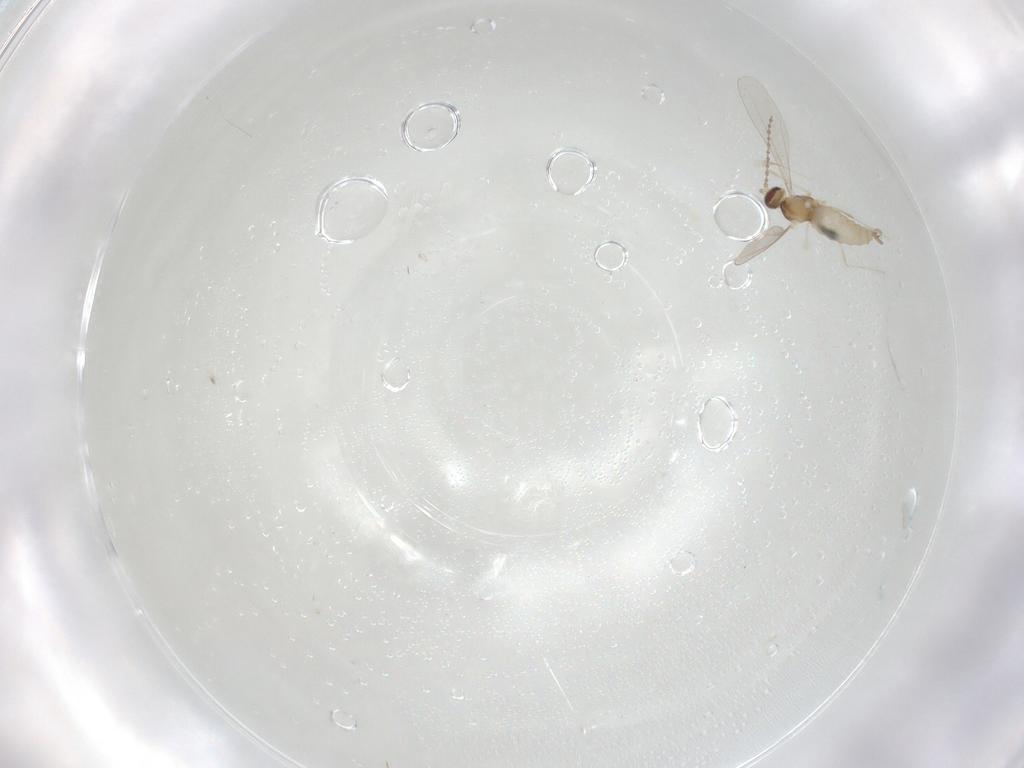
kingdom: Animalia
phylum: Arthropoda
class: Insecta
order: Diptera
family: Cecidomyiidae
